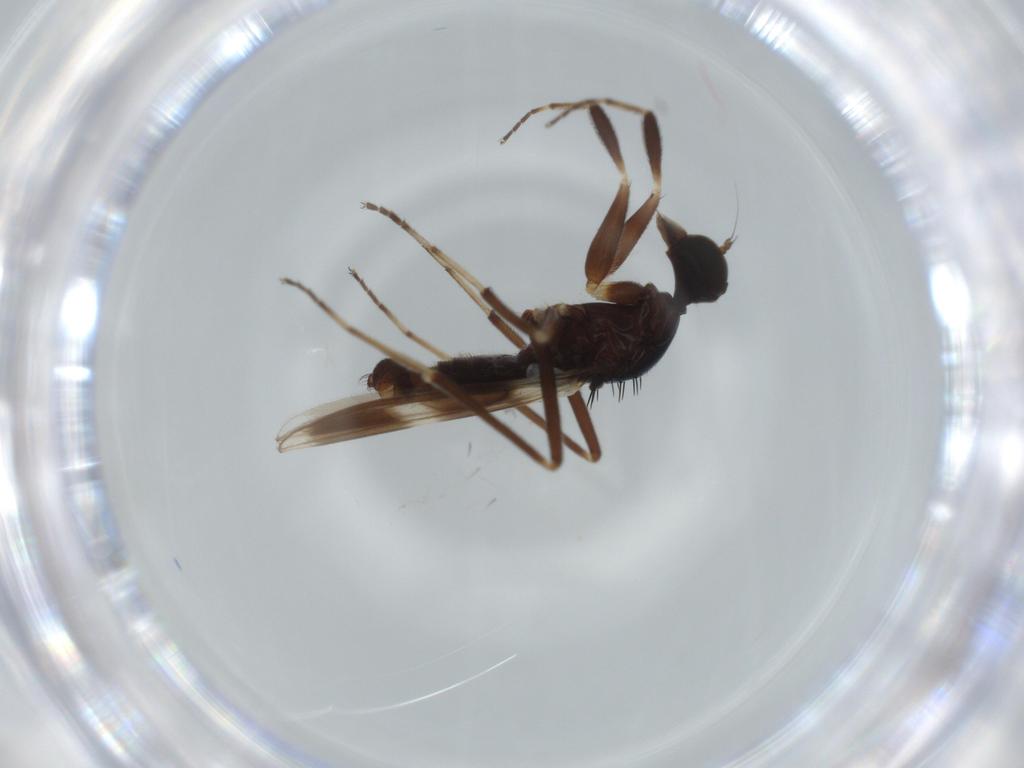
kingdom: Animalia
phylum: Arthropoda
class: Insecta
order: Diptera
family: Hybotidae
